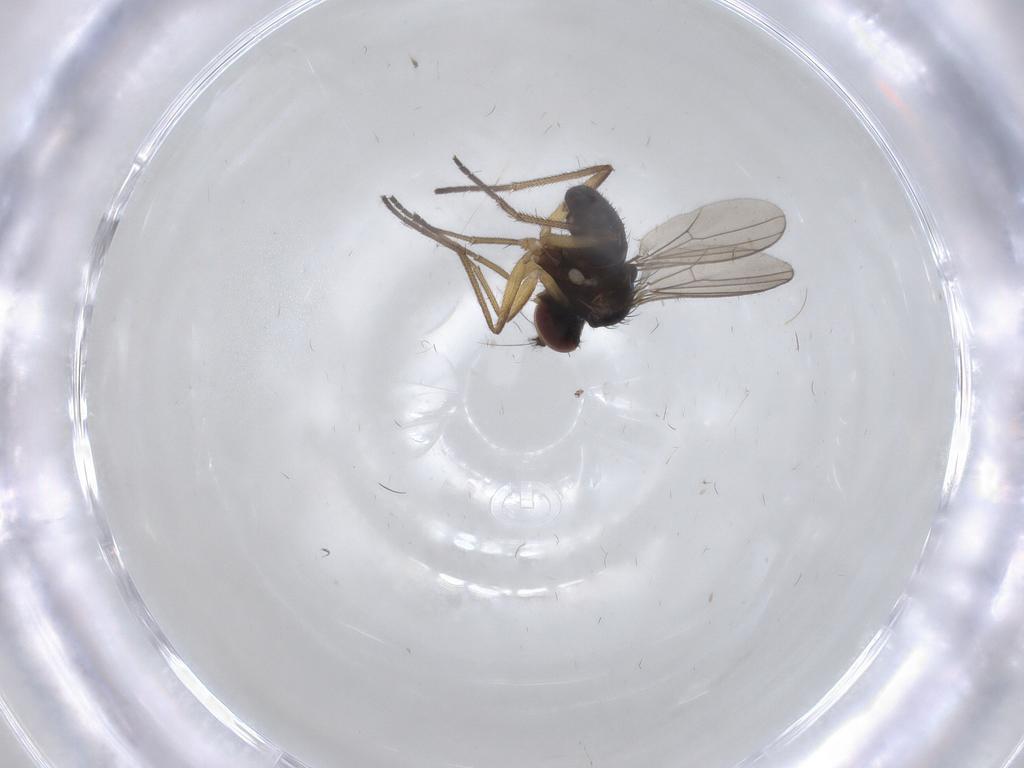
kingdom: Animalia
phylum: Arthropoda
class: Insecta
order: Diptera
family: Dolichopodidae
